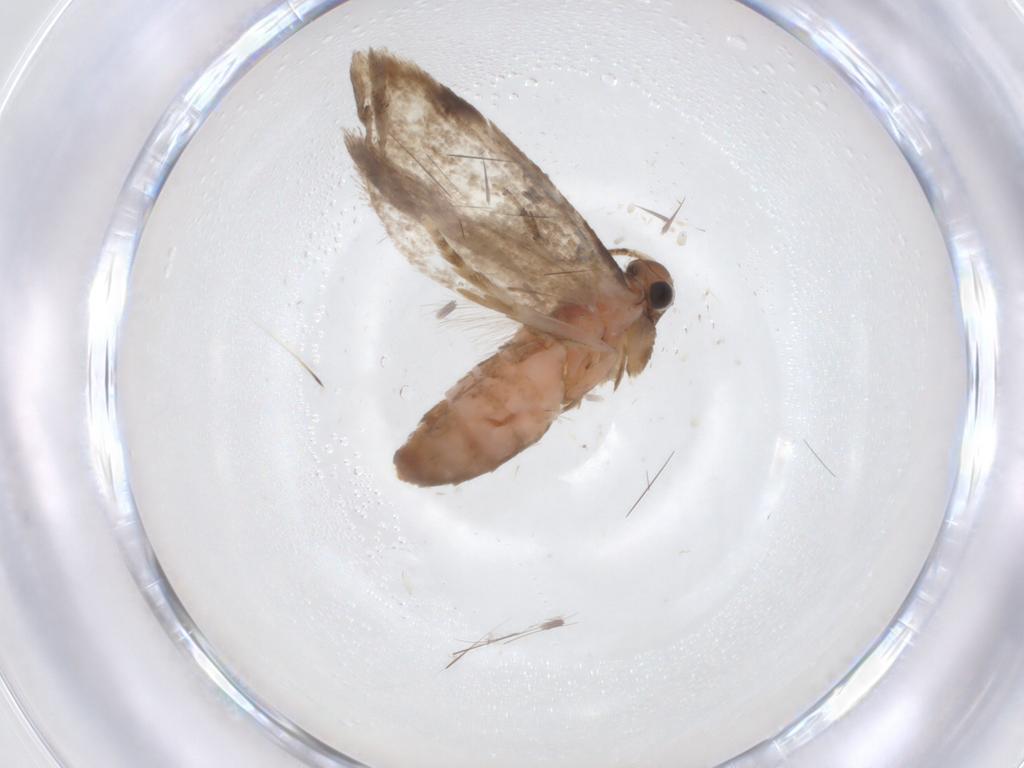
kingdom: Animalia
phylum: Arthropoda
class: Insecta
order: Lepidoptera
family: Tineidae
